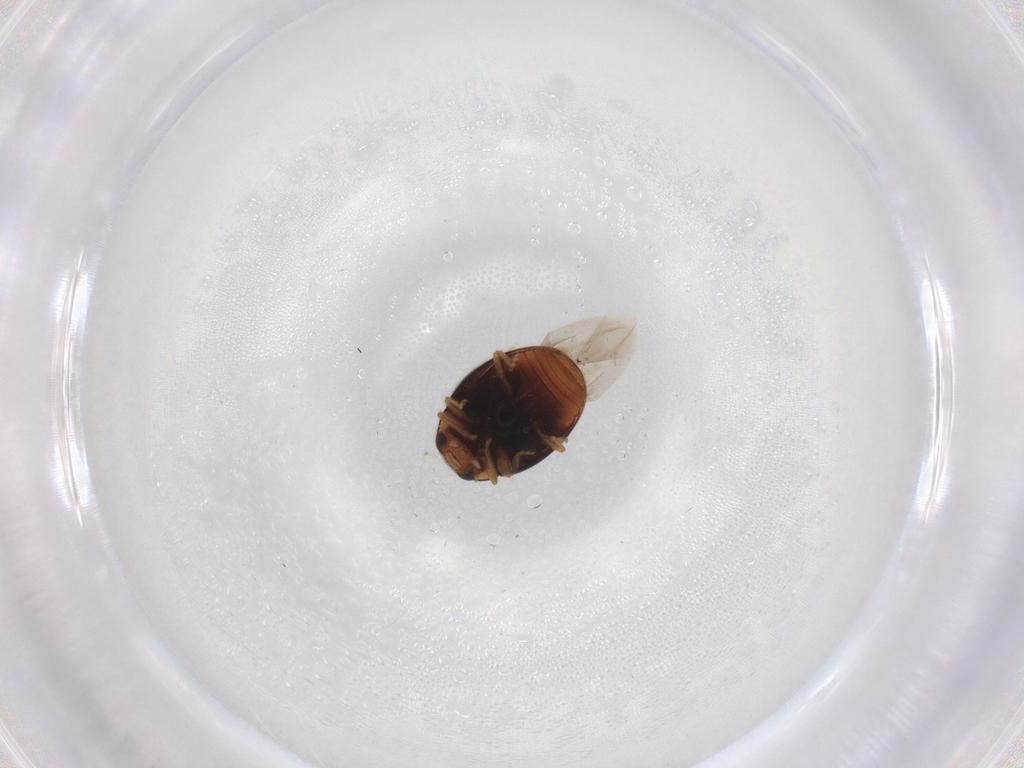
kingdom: Animalia
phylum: Arthropoda
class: Insecta
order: Coleoptera
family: Coccinellidae
